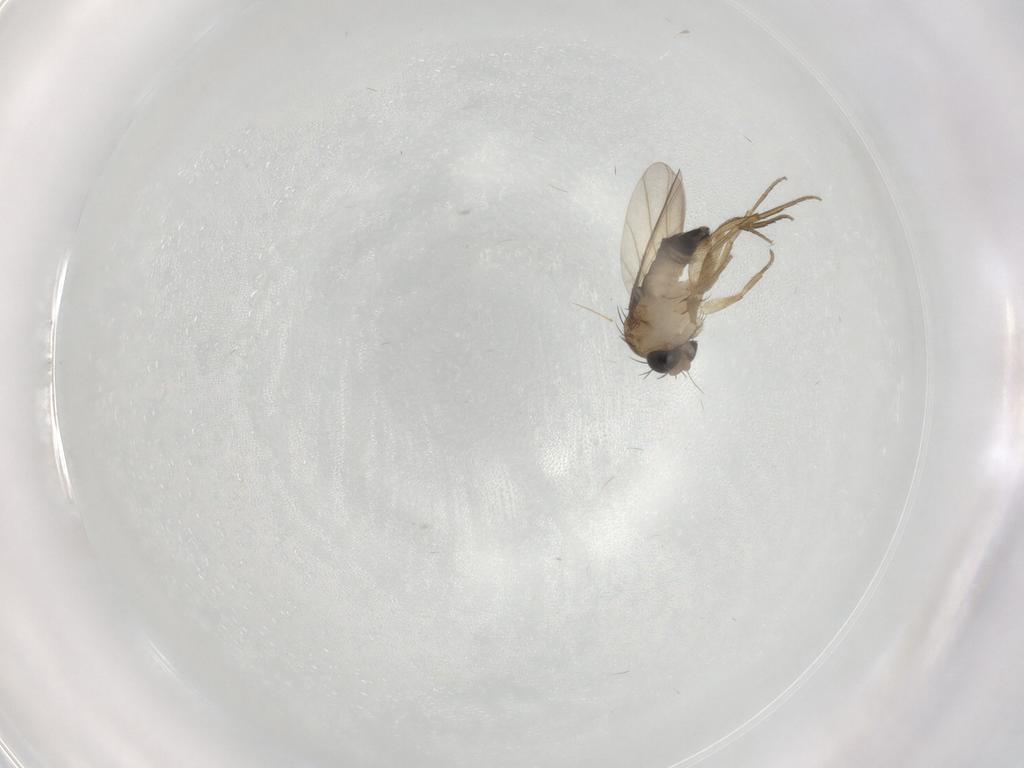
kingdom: Animalia
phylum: Arthropoda
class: Insecta
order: Diptera
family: Phoridae
